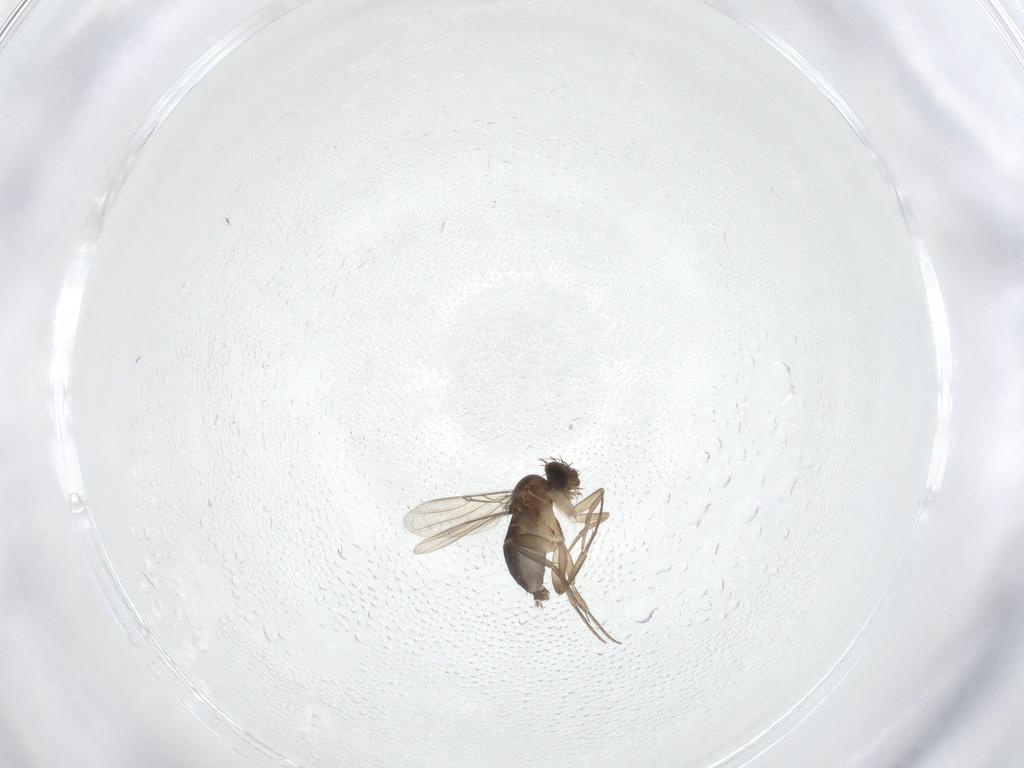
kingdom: Animalia
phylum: Arthropoda
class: Insecta
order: Diptera
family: Phoridae
